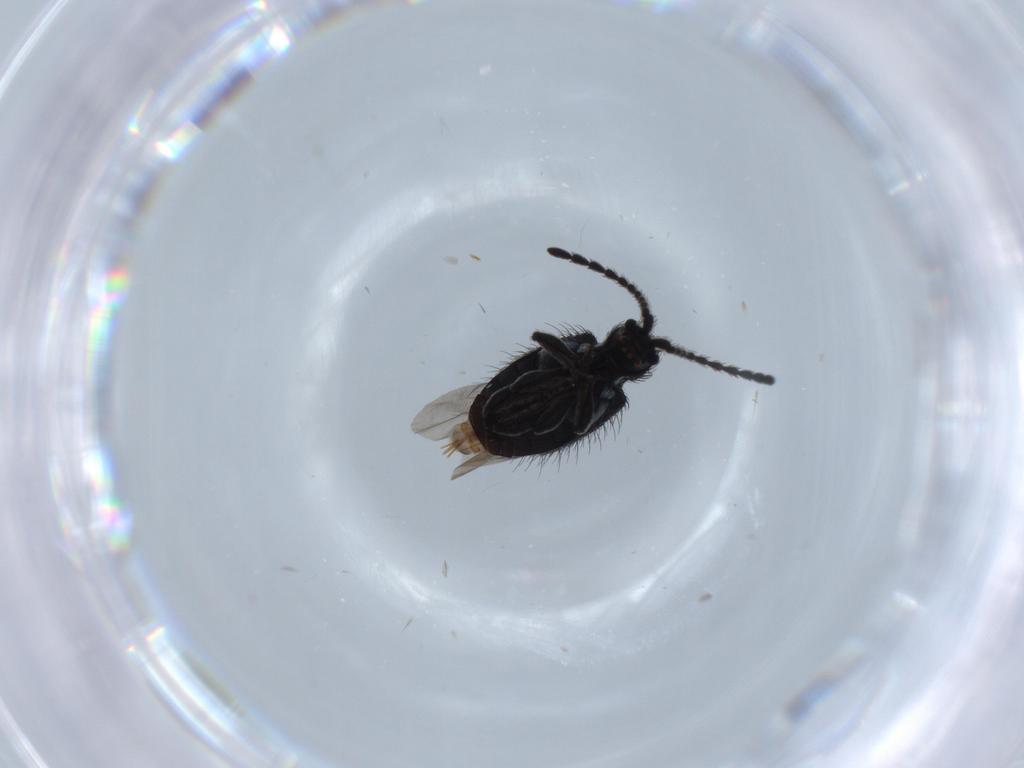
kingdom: Animalia
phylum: Arthropoda
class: Insecta
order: Coleoptera
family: Ptinidae
